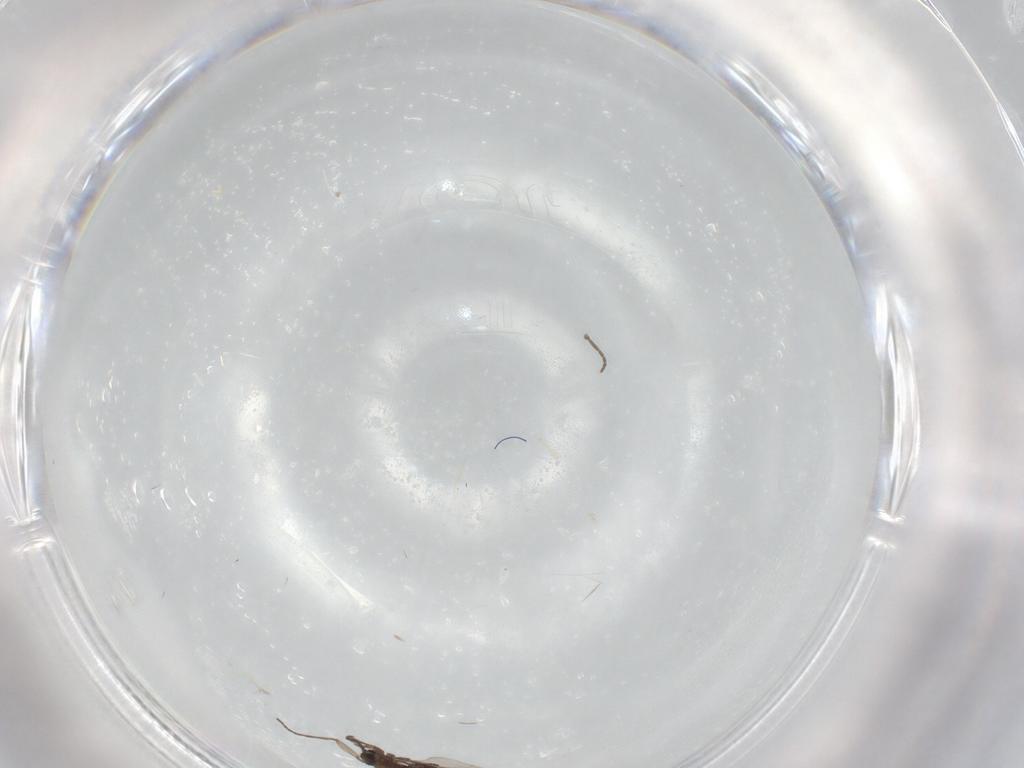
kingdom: Animalia
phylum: Arthropoda
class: Insecta
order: Diptera
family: Sciaridae
